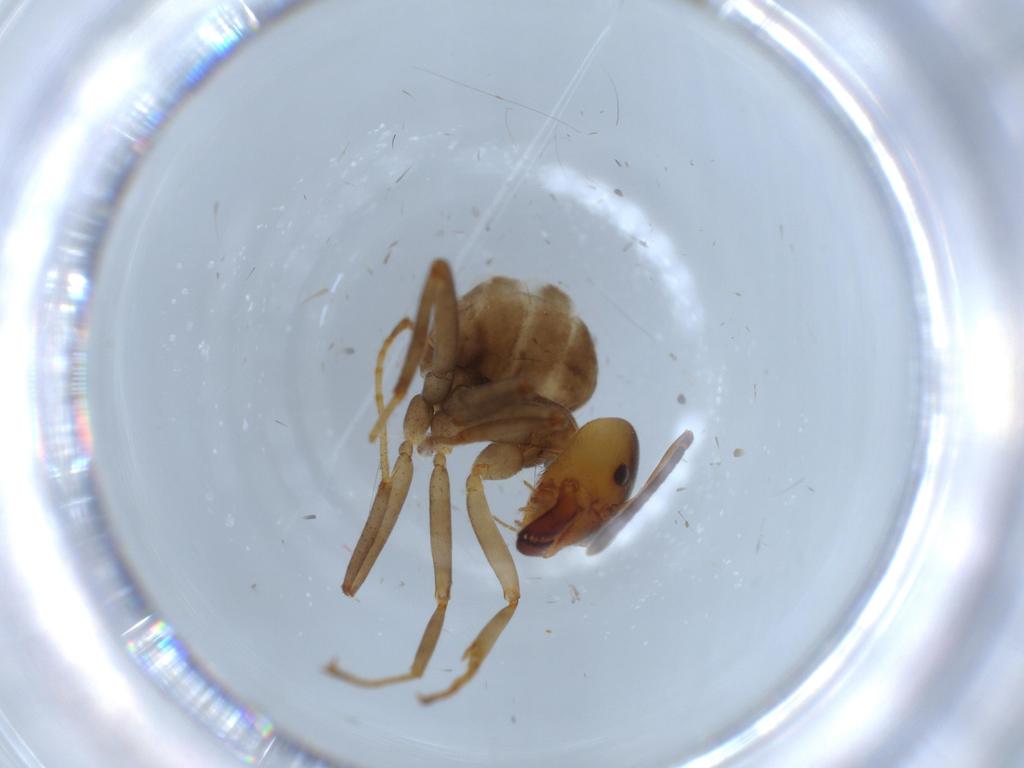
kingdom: Animalia
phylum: Arthropoda
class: Insecta
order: Hymenoptera
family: Formicidae
